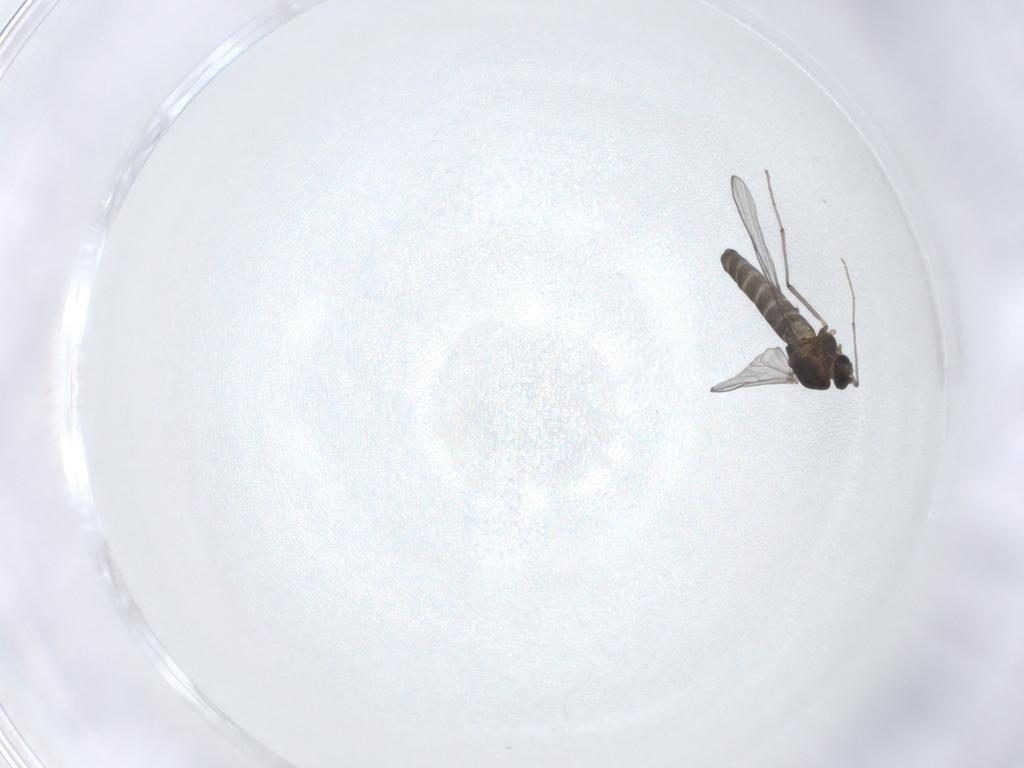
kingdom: Animalia
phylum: Arthropoda
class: Insecta
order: Diptera
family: Chironomidae
